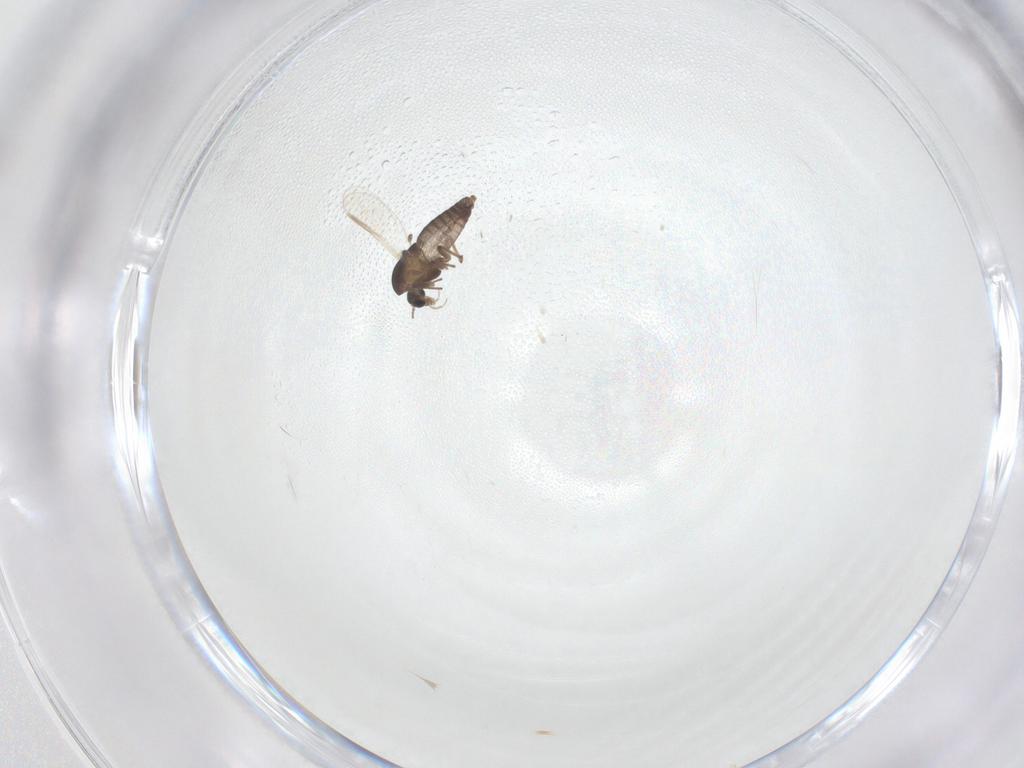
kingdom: Animalia
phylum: Arthropoda
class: Insecta
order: Diptera
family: Chironomidae
